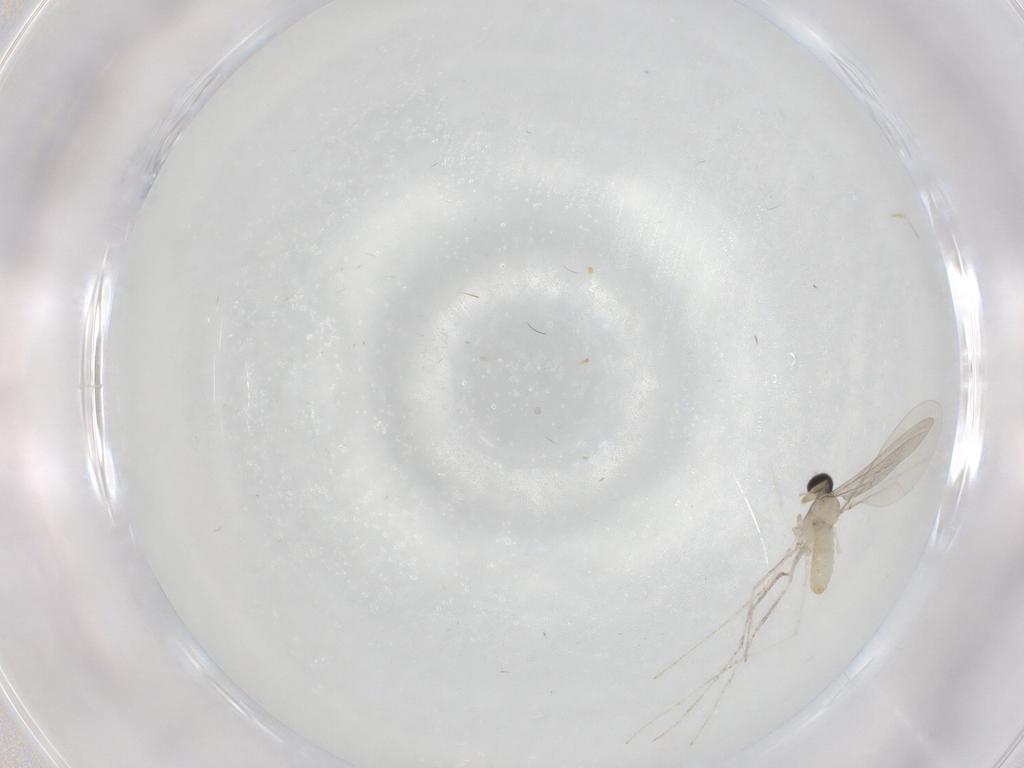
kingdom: Animalia
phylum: Arthropoda
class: Insecta
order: Diptera
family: Cecidomyiidae
